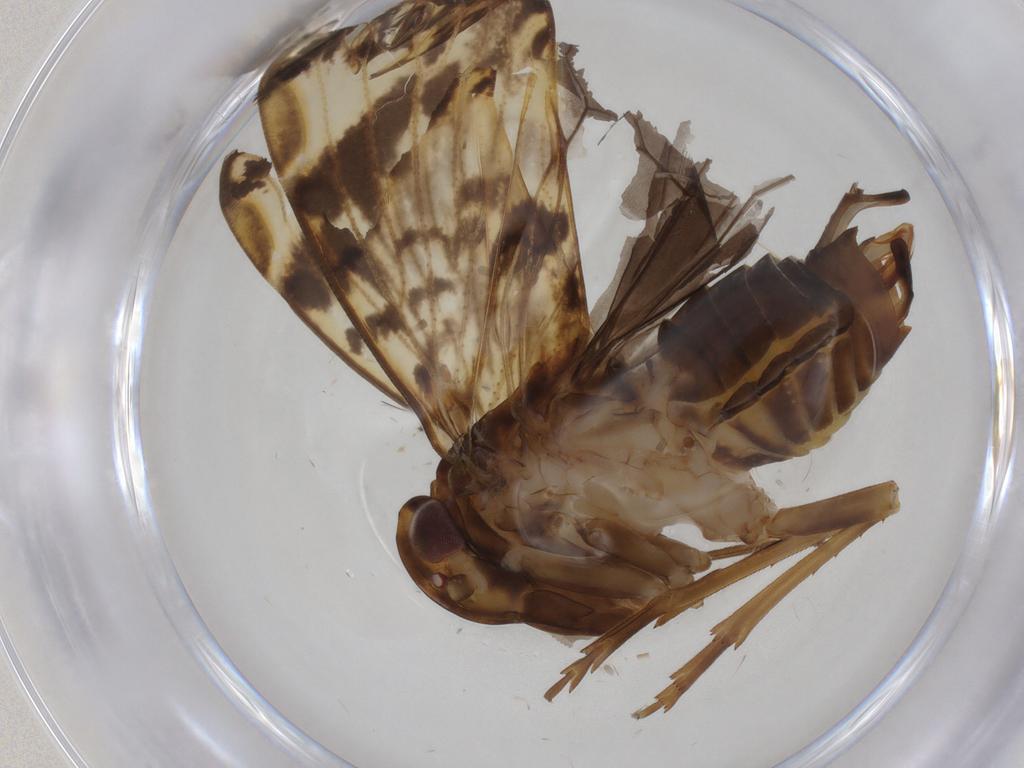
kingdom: Animalia
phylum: Arthropoda
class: Insecta
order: Hemiptera
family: Cixiidae
